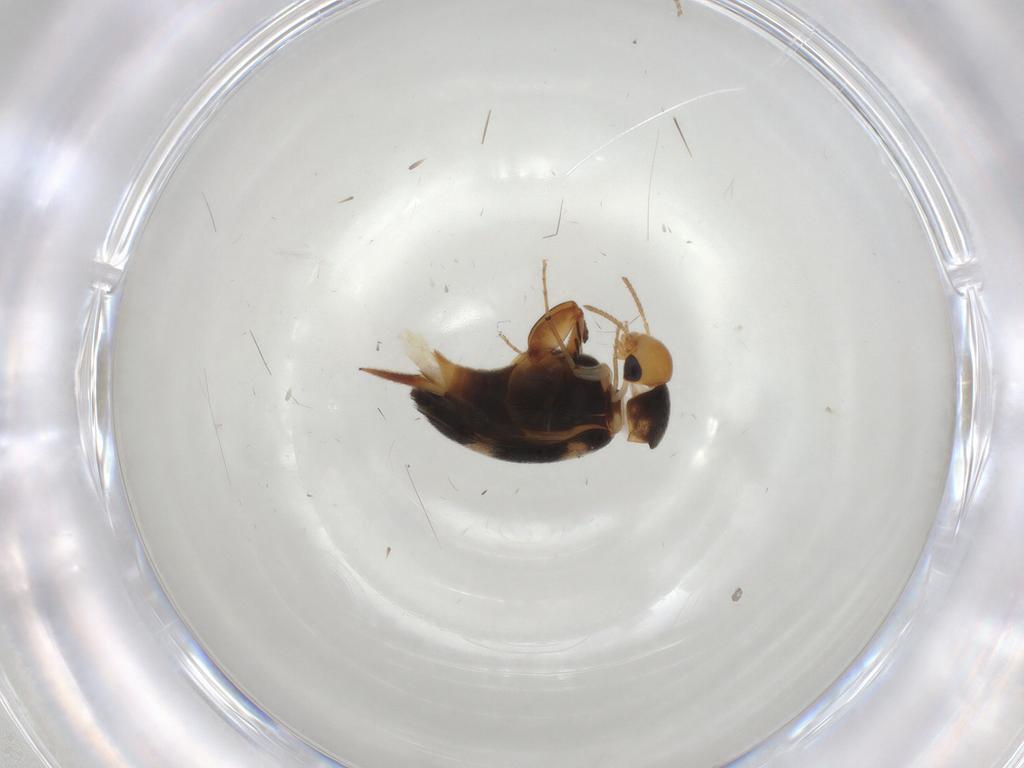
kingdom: Animalia
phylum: Arthropoda
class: Insecta
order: Coleoptera
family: Mordellidae
